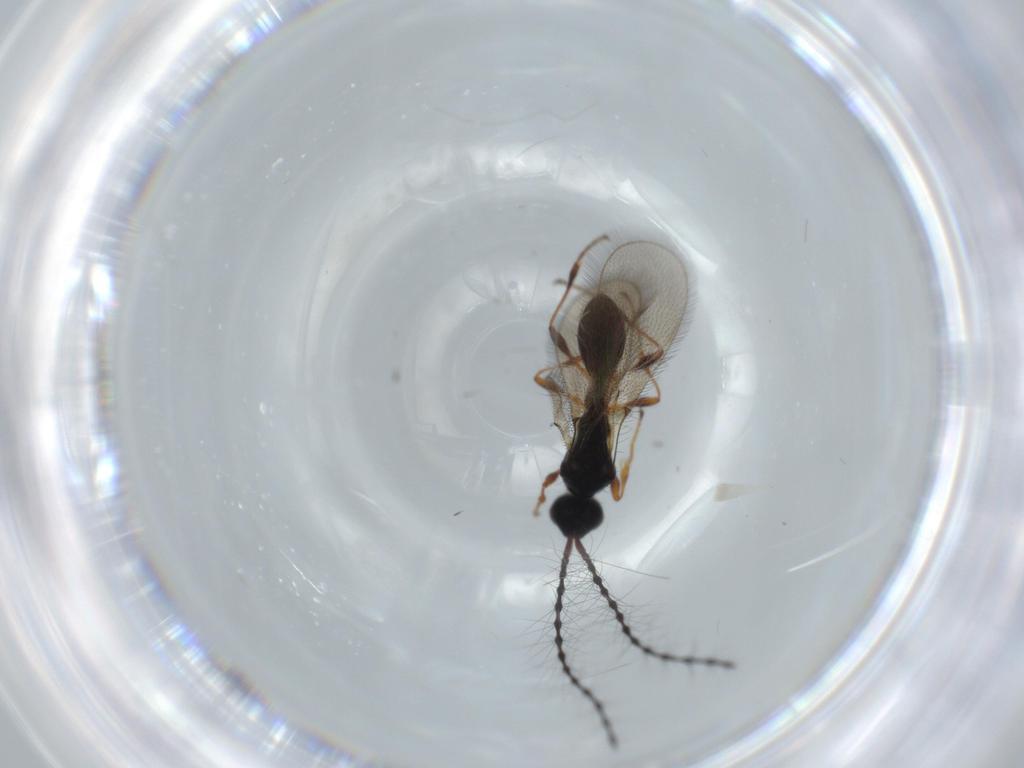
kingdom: Animalia
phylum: Arthropoda
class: Insecta
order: Hymenoptera
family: Diapriidae
